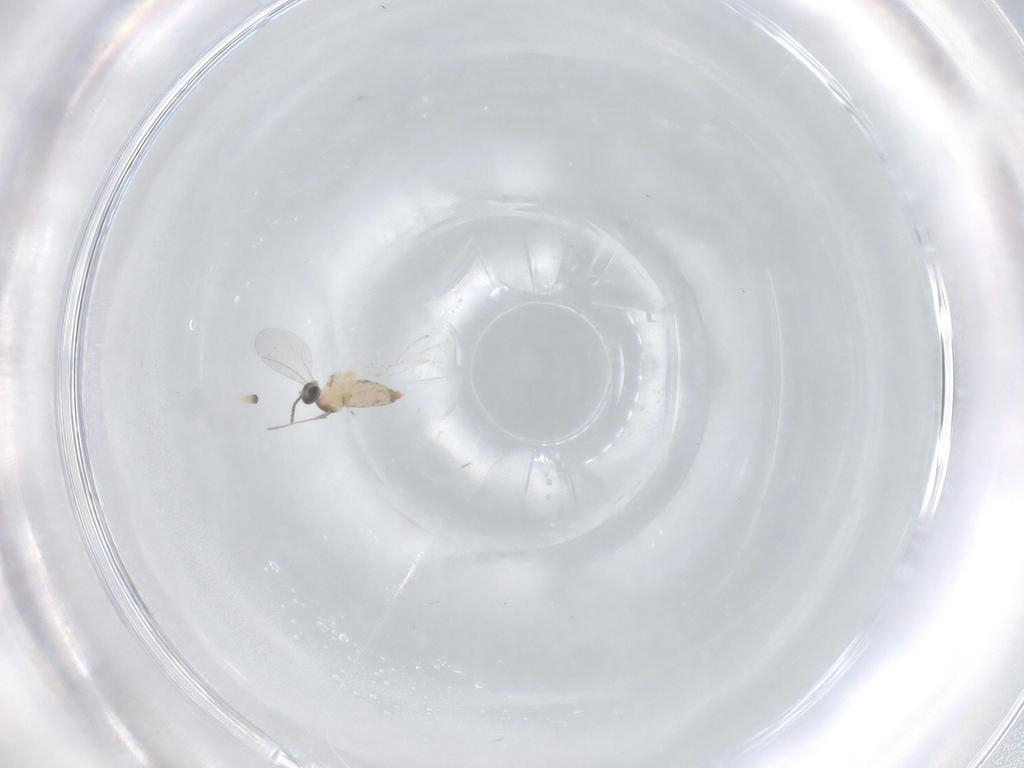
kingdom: Animalia
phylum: Arthropoda
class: Insecta
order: Diptera
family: Cecidomyiidae
